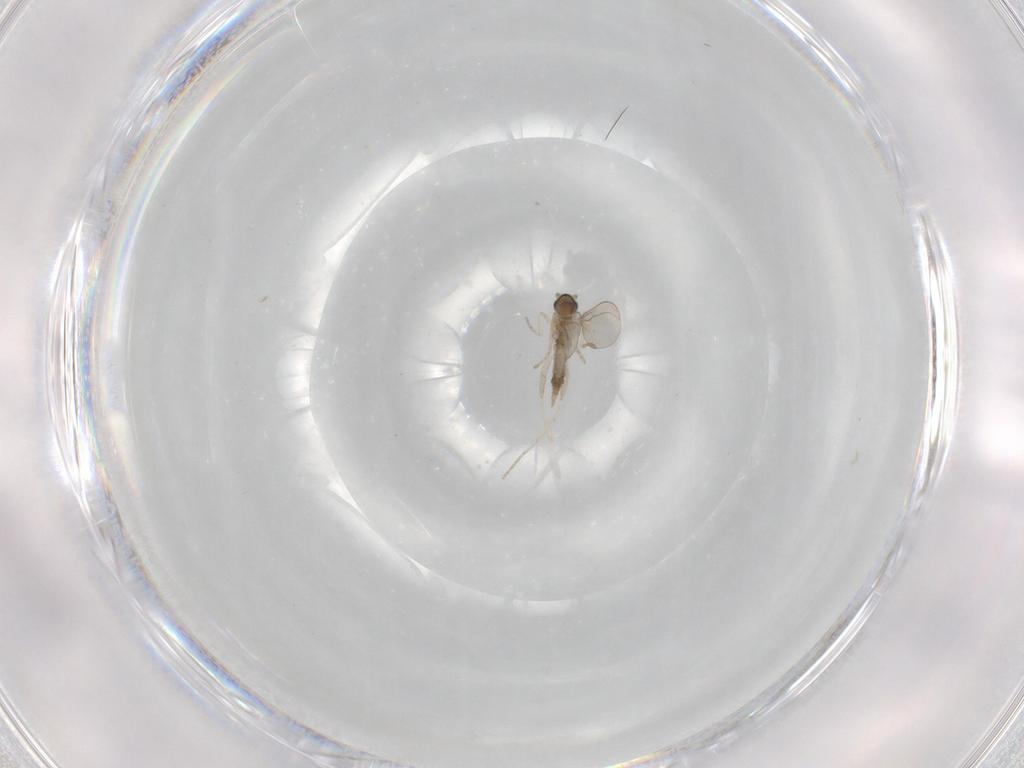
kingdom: Animalia
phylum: Arthropoda
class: Insecta
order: Diptera
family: Cecidomyiidae
